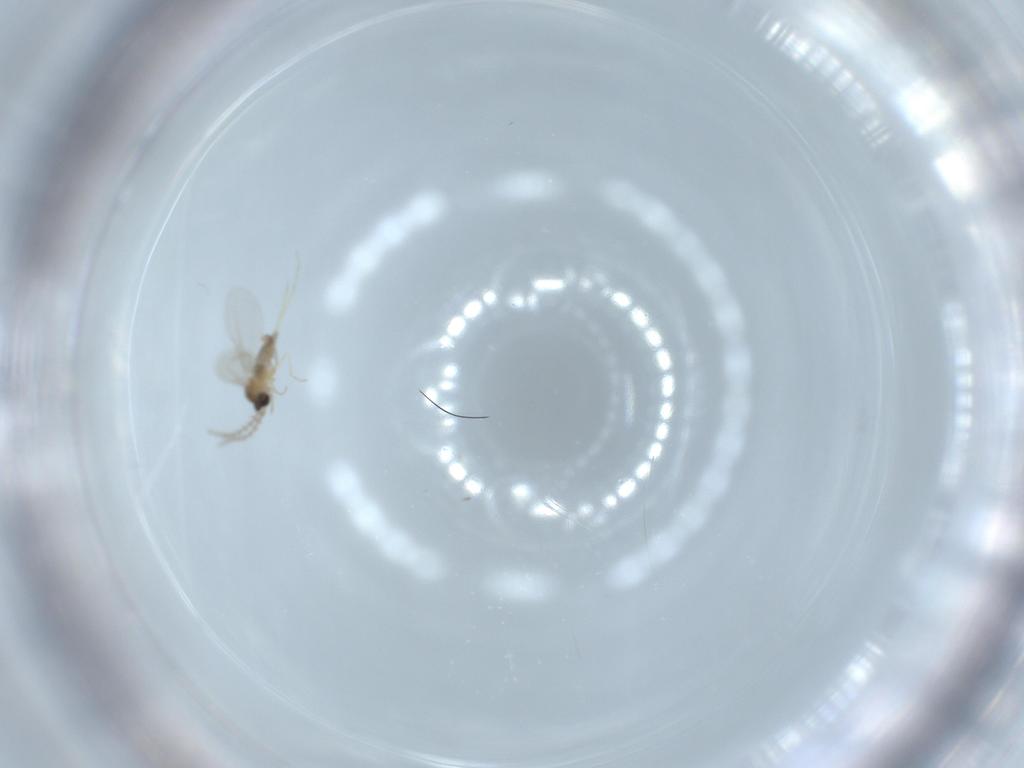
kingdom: Animalia
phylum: Arthropoda
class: Insecta
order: Diptera
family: Cecidomyiidae
